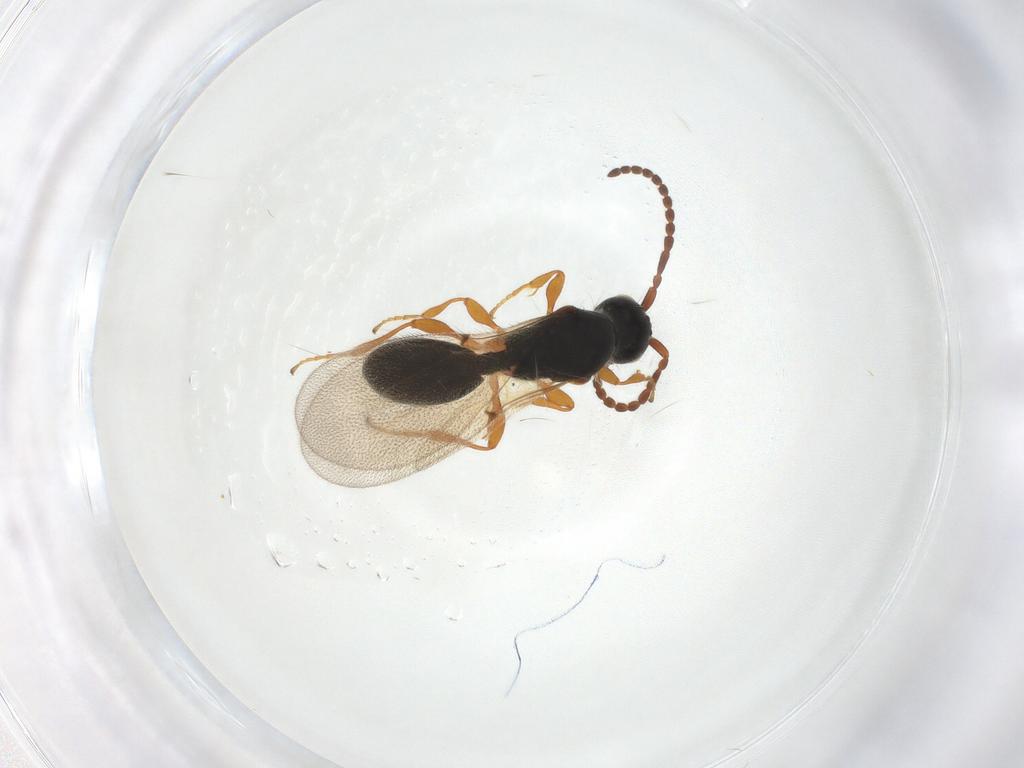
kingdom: Animalia
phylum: Arthropoda
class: Insecta
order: Hymenoptera
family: Diapriidae
